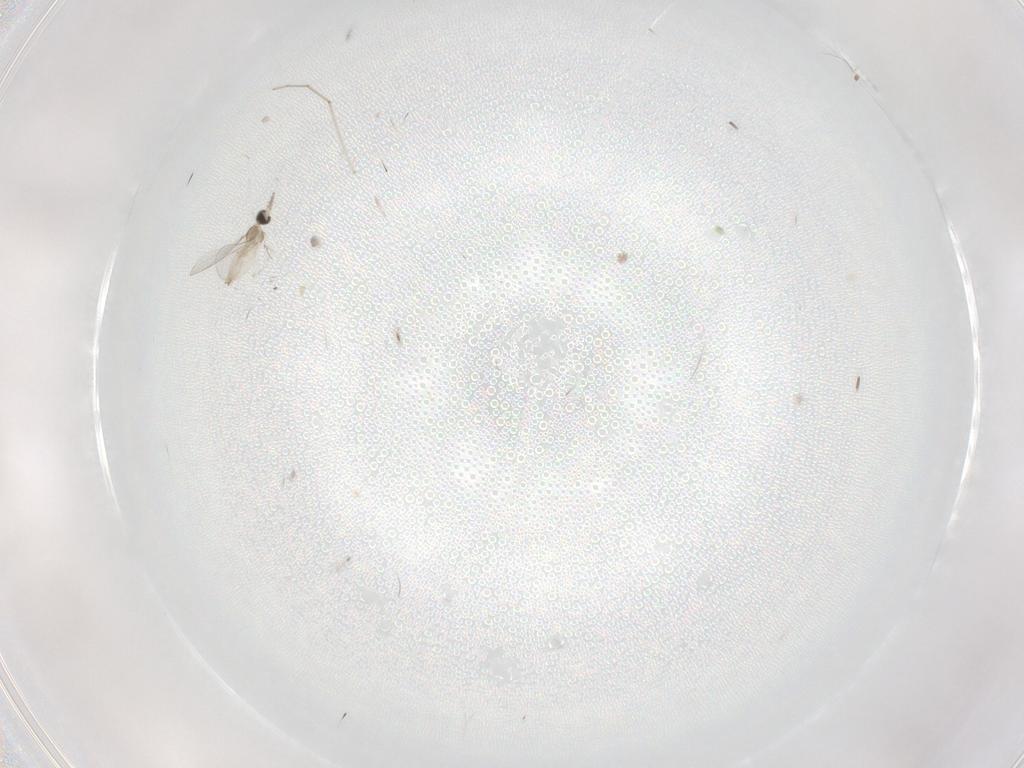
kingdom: Animalia
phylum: Arthropoda
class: Insecta
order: Diptera
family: Cecidomyiidae
